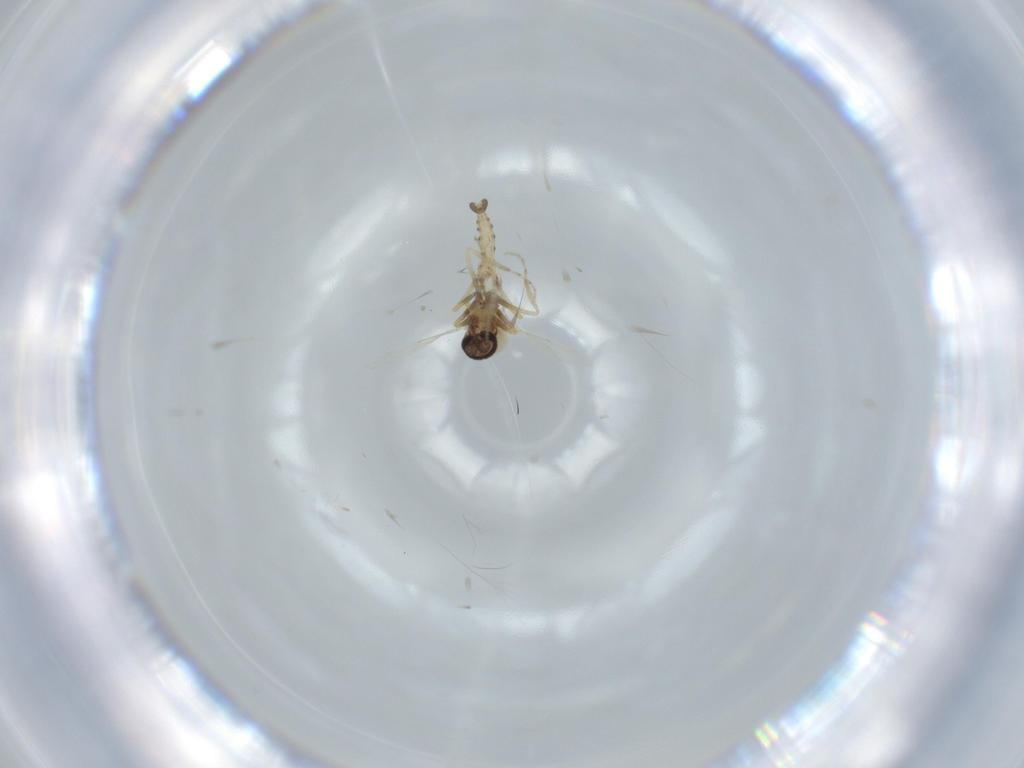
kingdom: Animalia
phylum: Arthropoda
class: Insecta
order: Diptera
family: Ceratopogonidae
